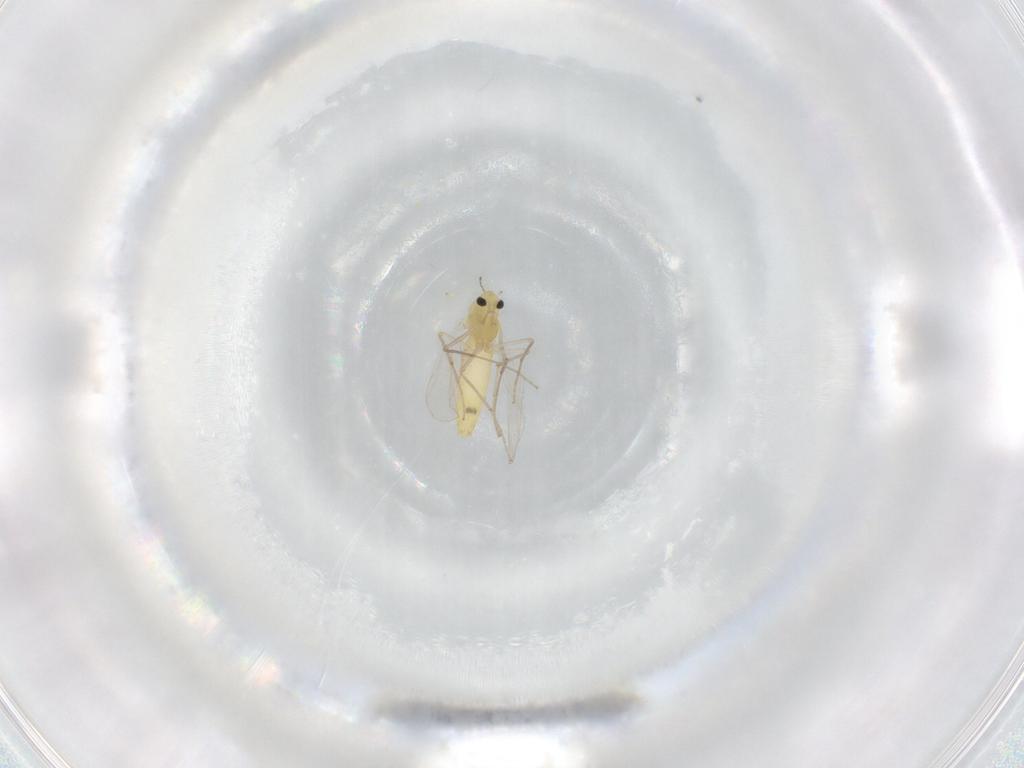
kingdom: Animalia
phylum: Arthropoda
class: Insecta
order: Diptera
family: Chironomidae
